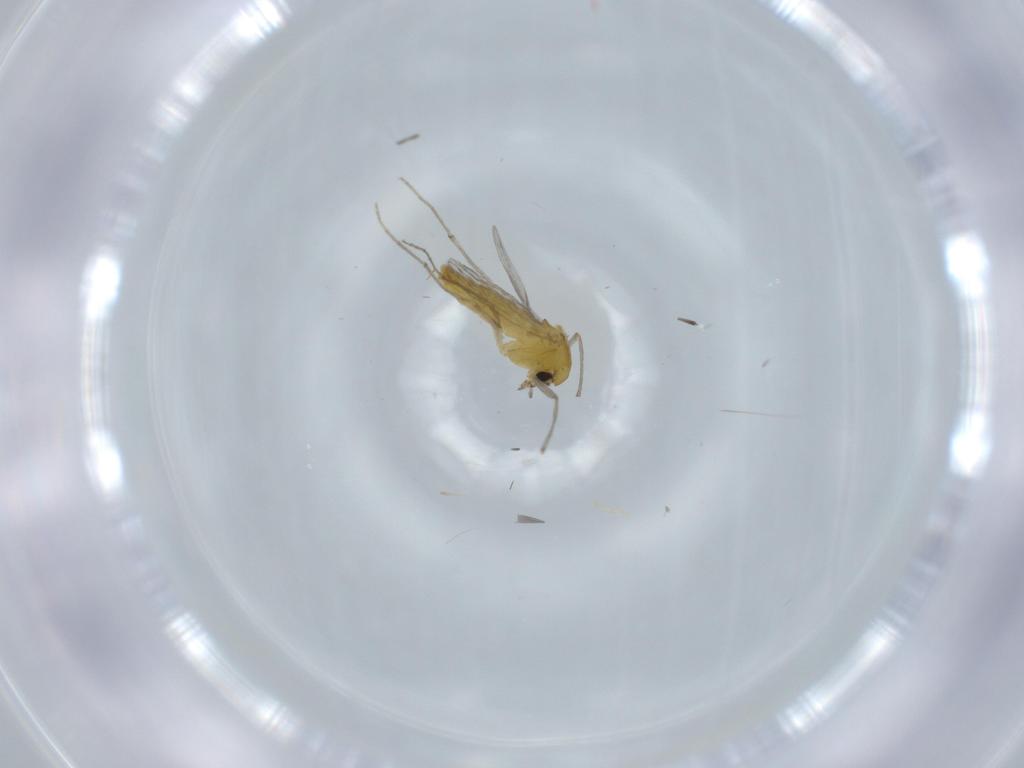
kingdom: Animalia
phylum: Arthropoda
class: Insecta
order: Diptera
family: Chironomidae
